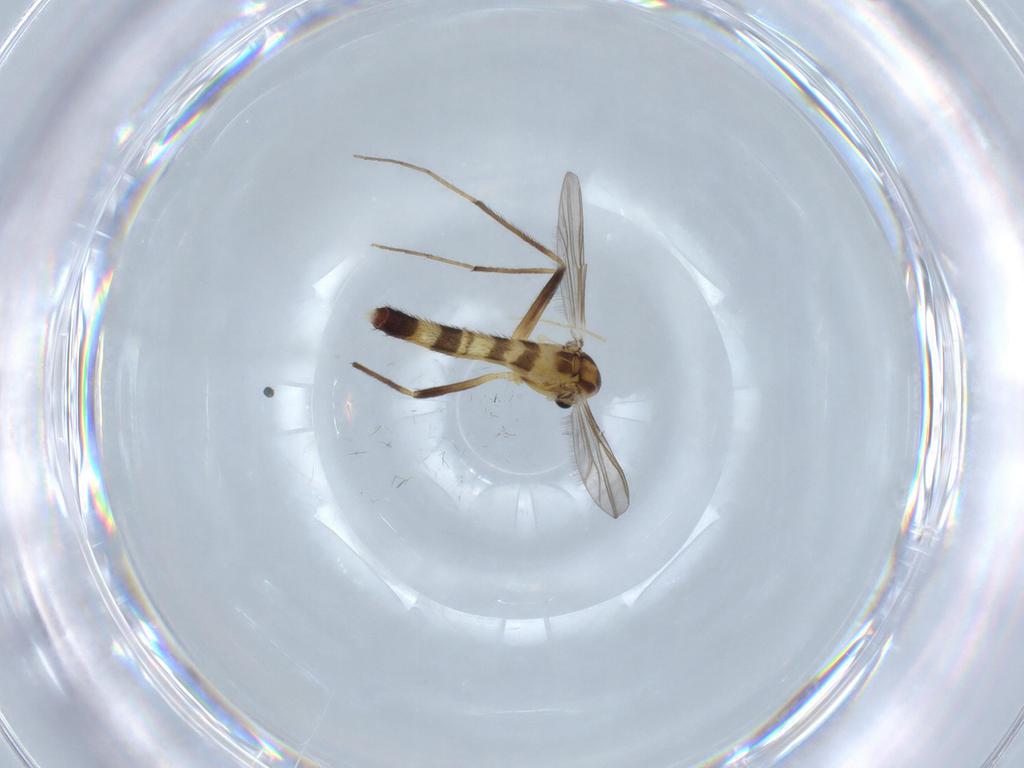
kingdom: Animalia
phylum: Arthropoda
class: Insecta
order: Diptera
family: Chironomidae
